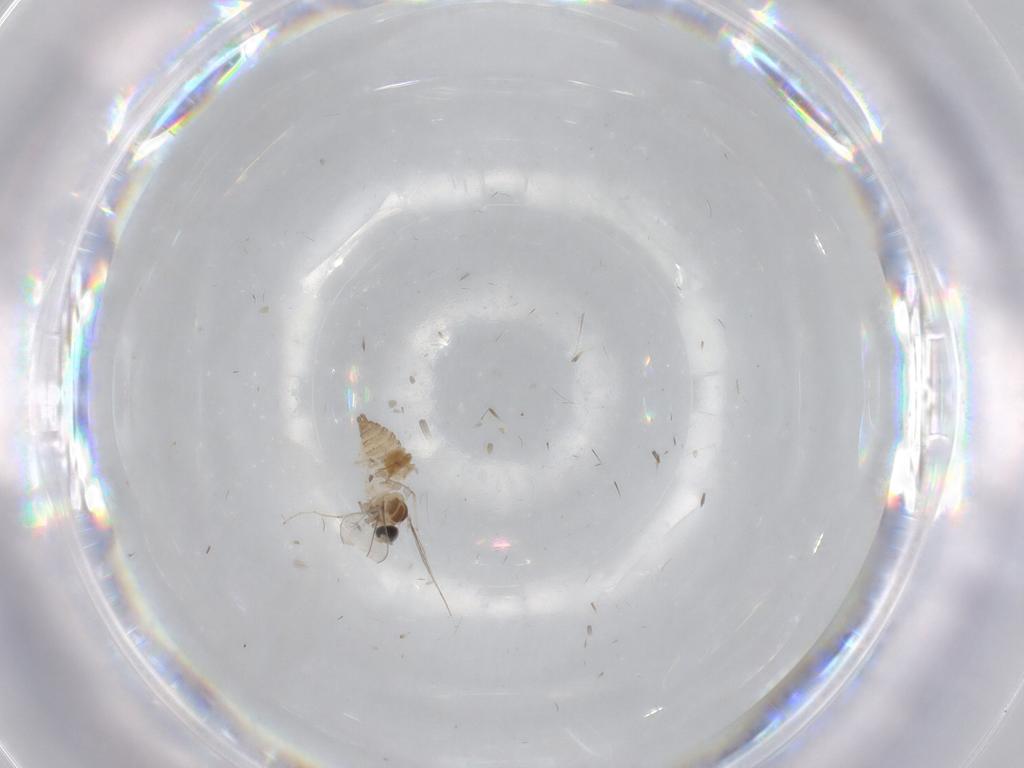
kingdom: Animalia
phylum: Arthropoda
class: Insecta
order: Diptera
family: Cecidomyiidae
